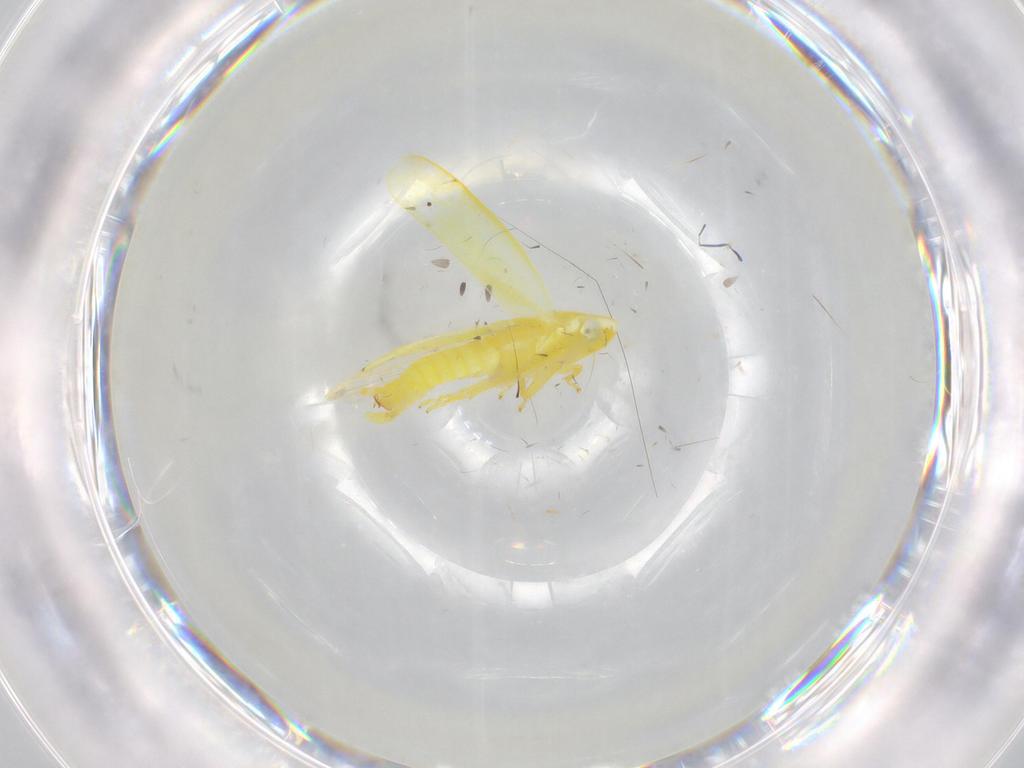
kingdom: Animalia
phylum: Arthropoda
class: Insecta
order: Hemiptera
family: Cicadellidae
